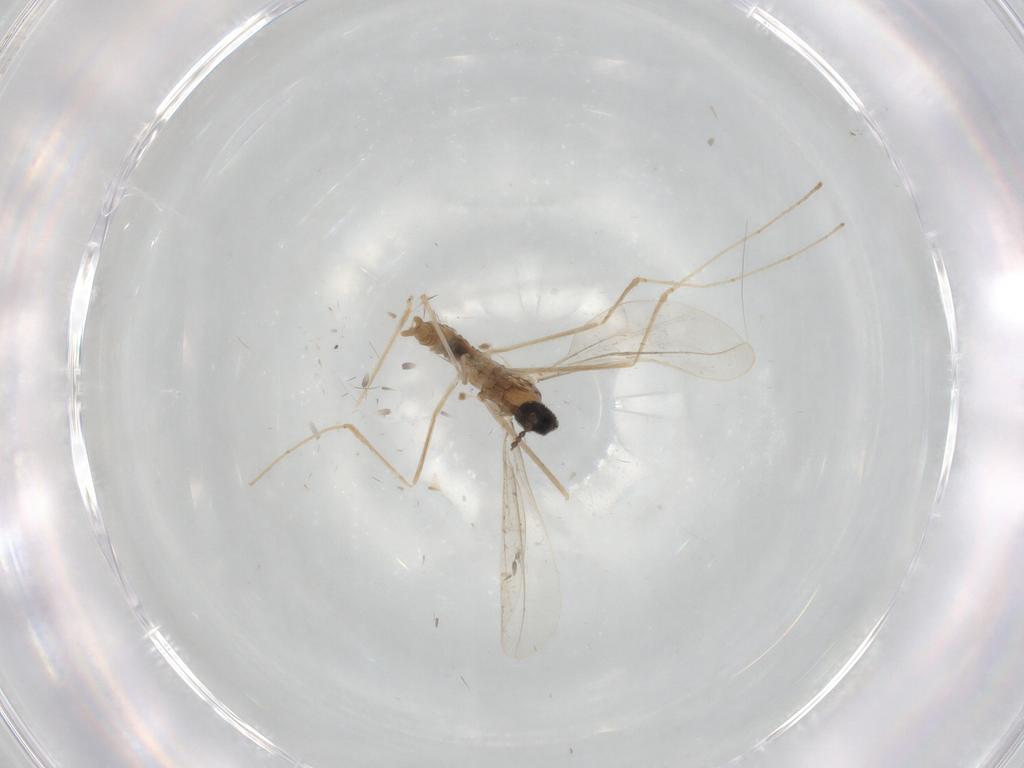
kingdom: Animalia
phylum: Arthropoda
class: Insecta
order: Diptera
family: Cecidomyiidae
